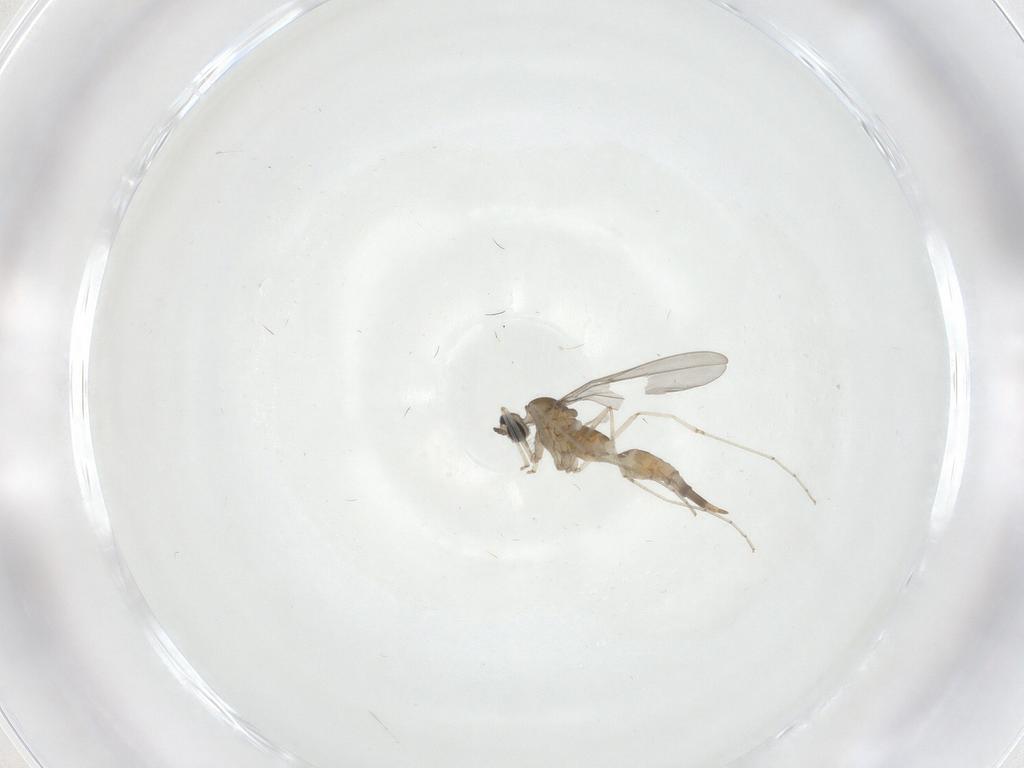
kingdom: Animalia
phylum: Arthropoda
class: Insecta
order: Diptera
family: Cecidomyiidae
